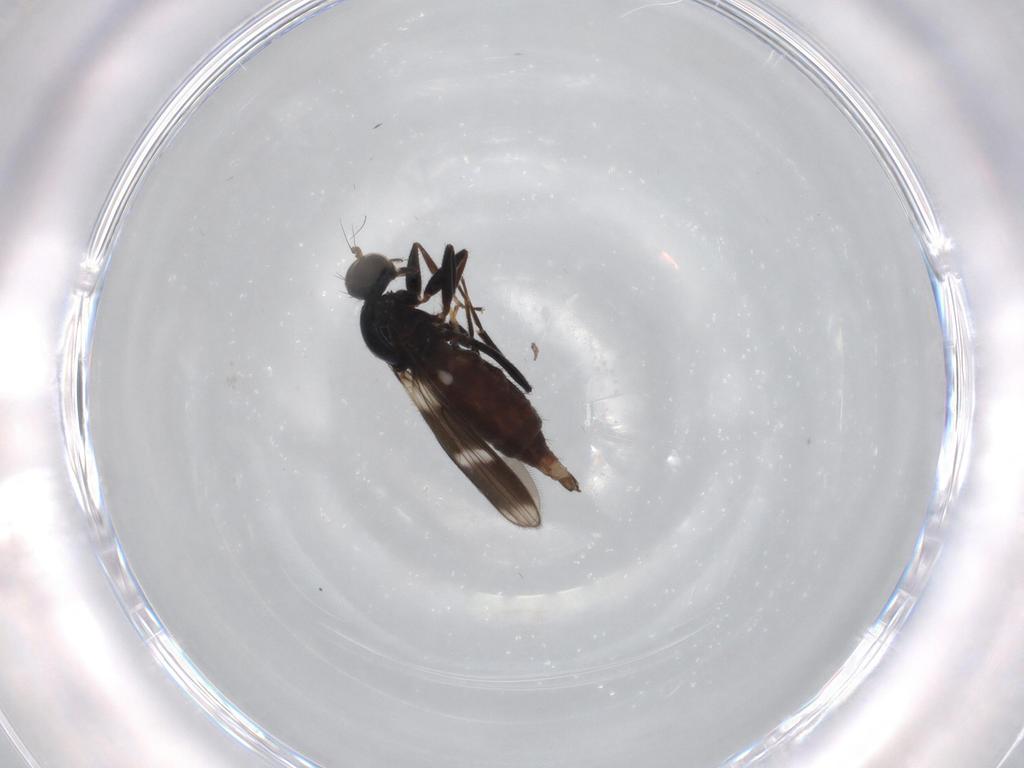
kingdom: Animalia
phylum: Arthropoda
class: Insecta
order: Diptera
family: Hybotidae
